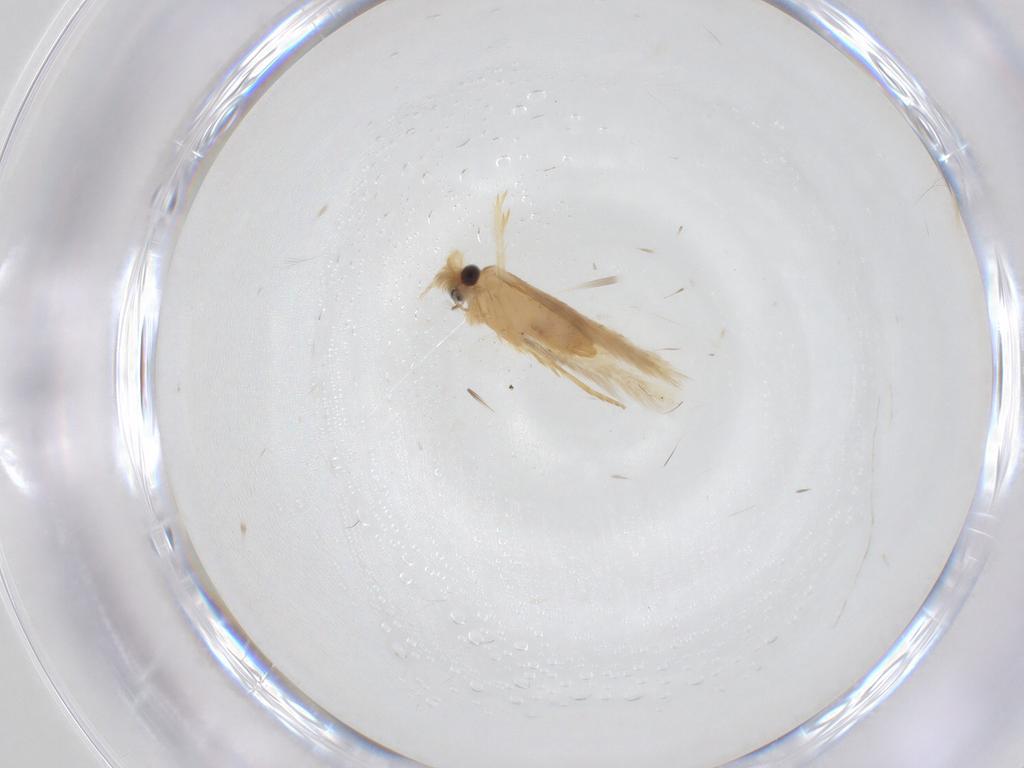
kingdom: Animalia
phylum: Arthropoda
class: Insecta
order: Lepidoptera
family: Nepticulidae
